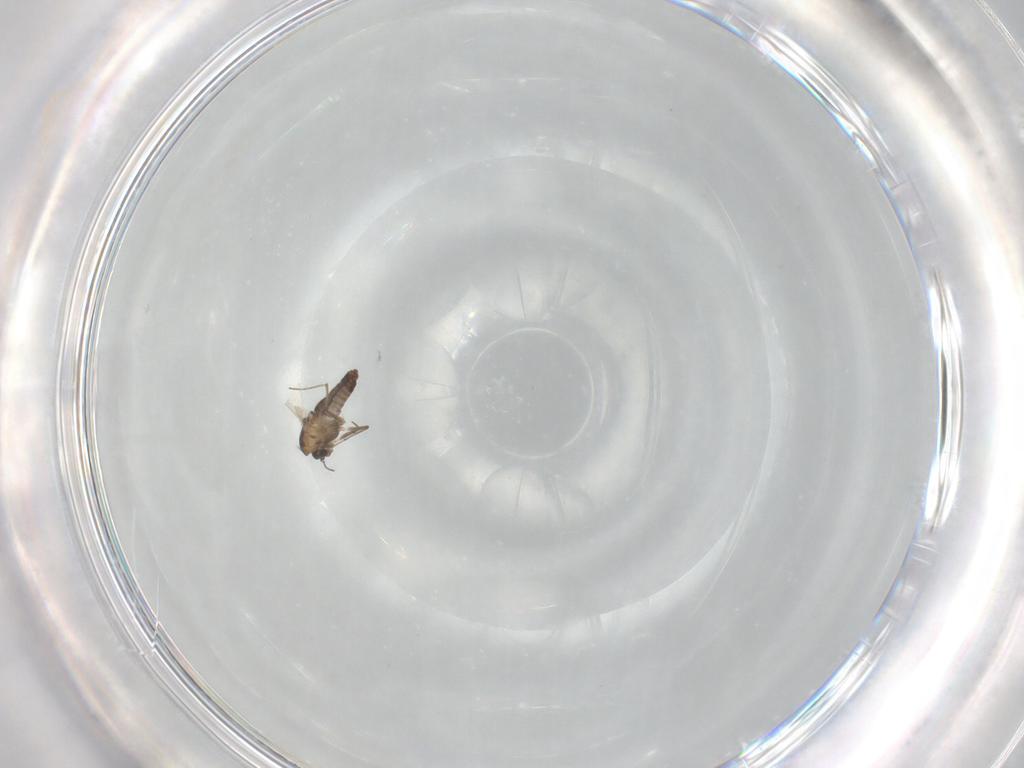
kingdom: Animalia
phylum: Arthropoda
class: Insecta
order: Diptera
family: Chironomidae
